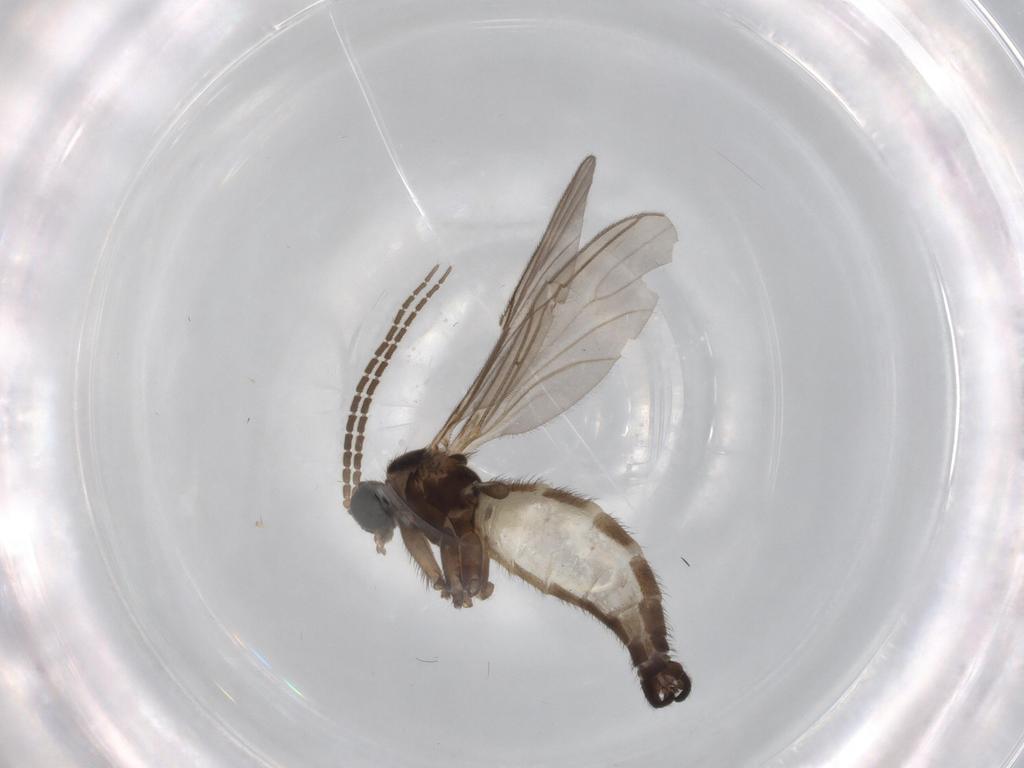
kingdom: Animalia
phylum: Arthropoda
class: Insecta
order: Diptera
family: Sciaridae
